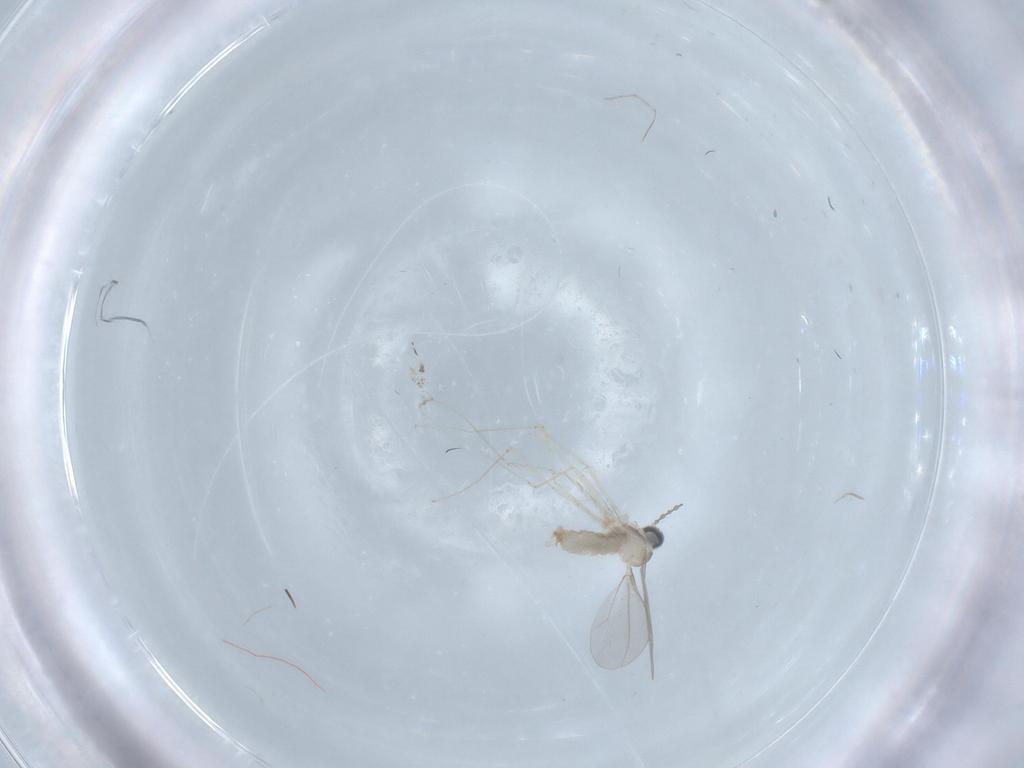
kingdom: Animalia
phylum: Arthropoda
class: Insecta
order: Diptera
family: Cecidomyiidae
